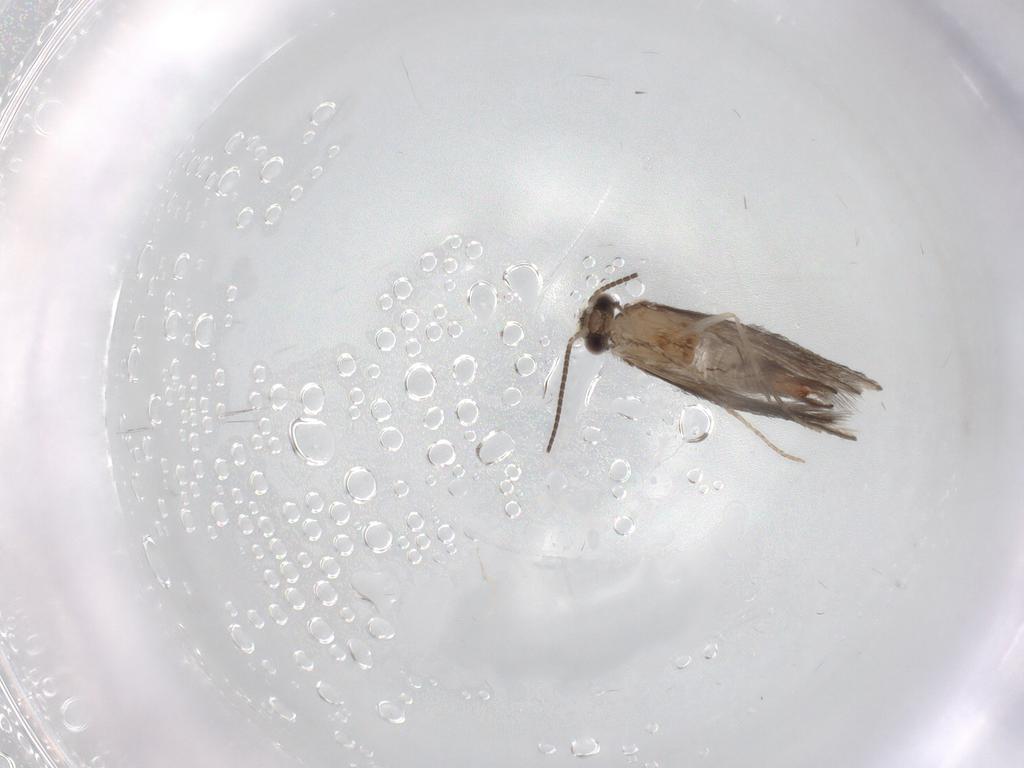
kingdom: Animalia
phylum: Arthropoda
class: Insecta
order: Trichoptera
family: Hydroptilidae
